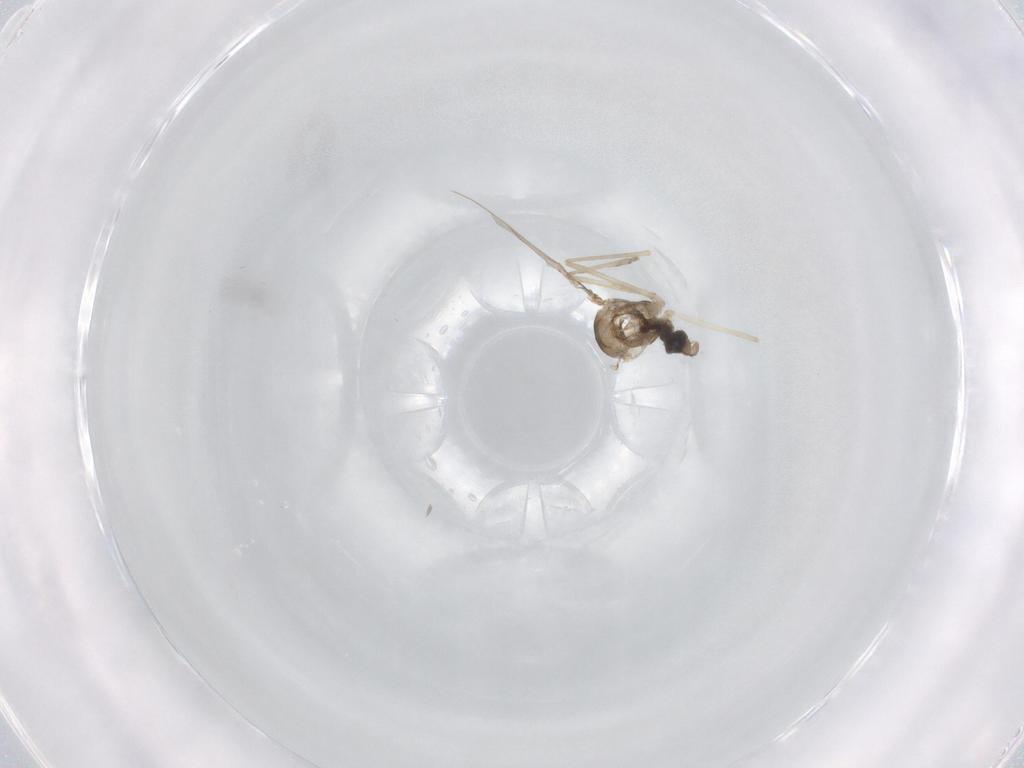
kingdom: Animalia
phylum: Arthropoda
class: Insecta
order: Diptera
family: Cecidomyiidae
